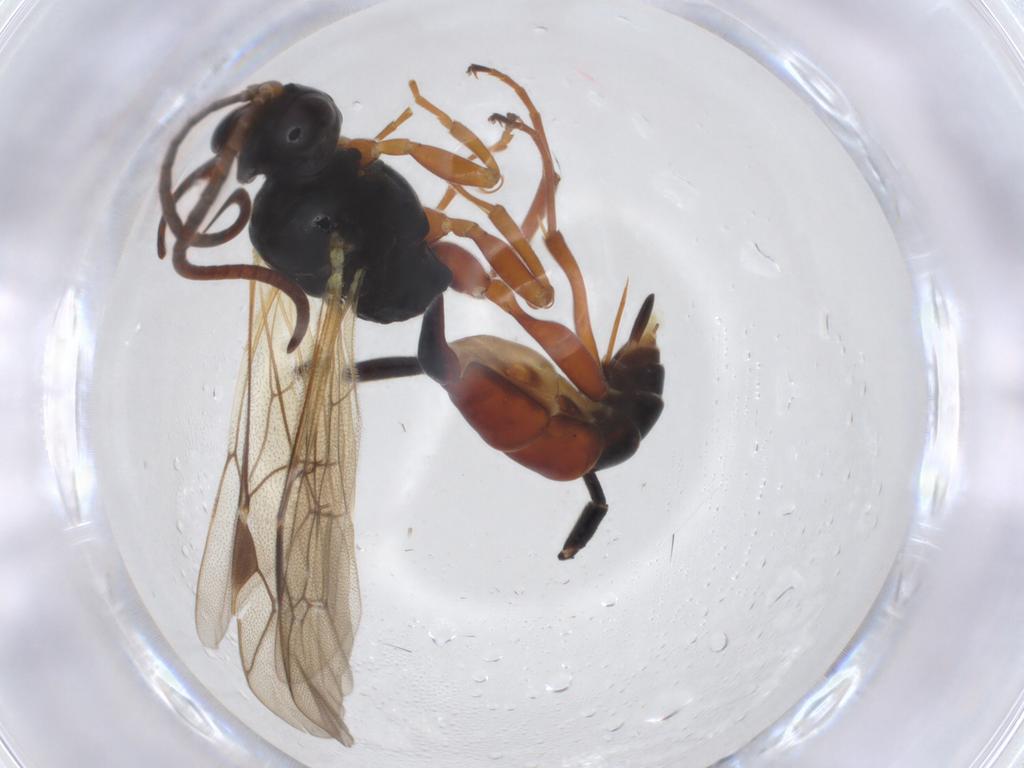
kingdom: Animalia
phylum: Arthropoda
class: Insecta
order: Hymenoptera
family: Ichneumonidae
